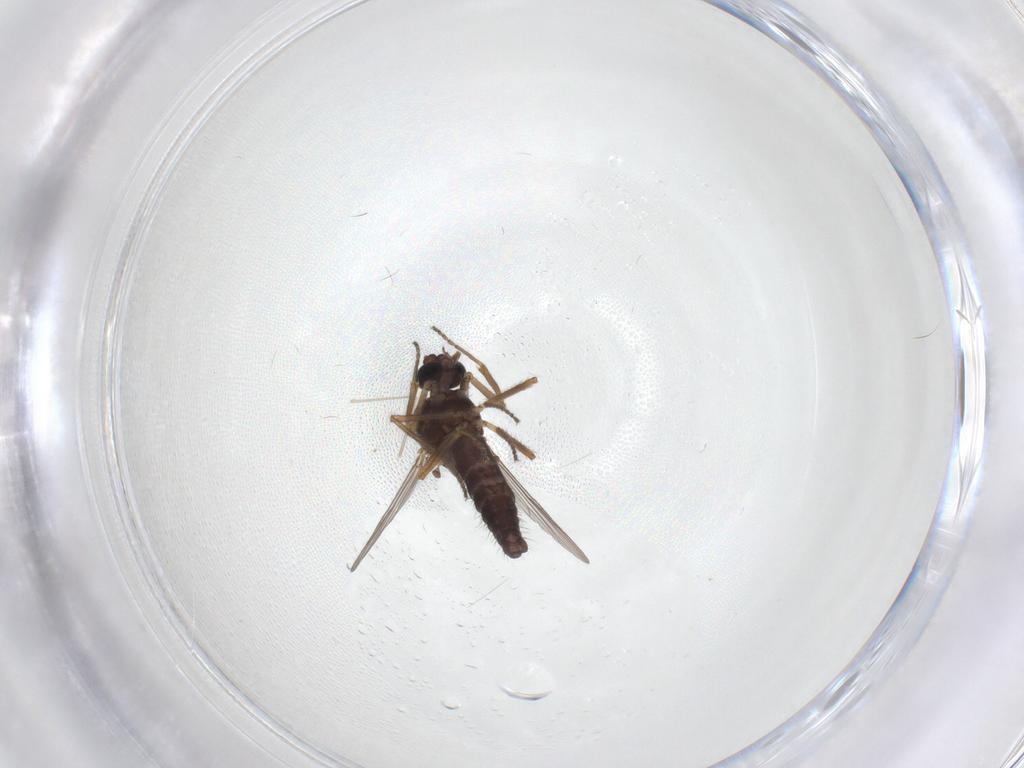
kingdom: Animalia
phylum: Arthropoda
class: Insecta
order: Diptera
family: Ceratopogonidae
